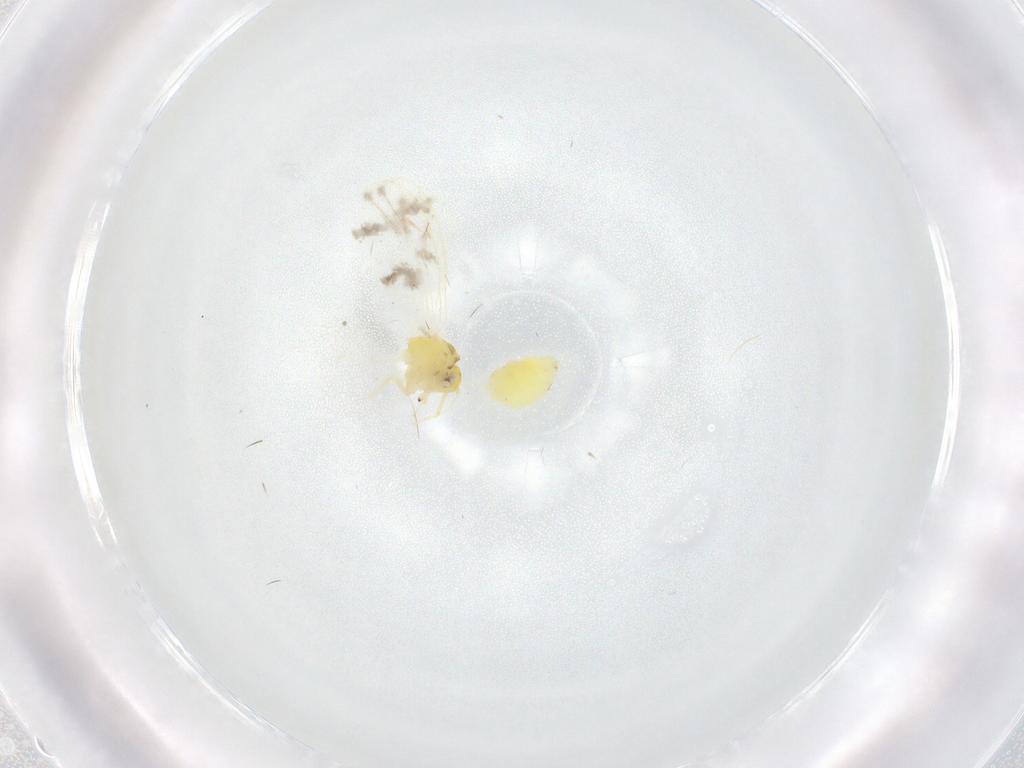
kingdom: Animalia
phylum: Arthropoda
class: Insecta
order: Hemiptera
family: Aleyrodidae
